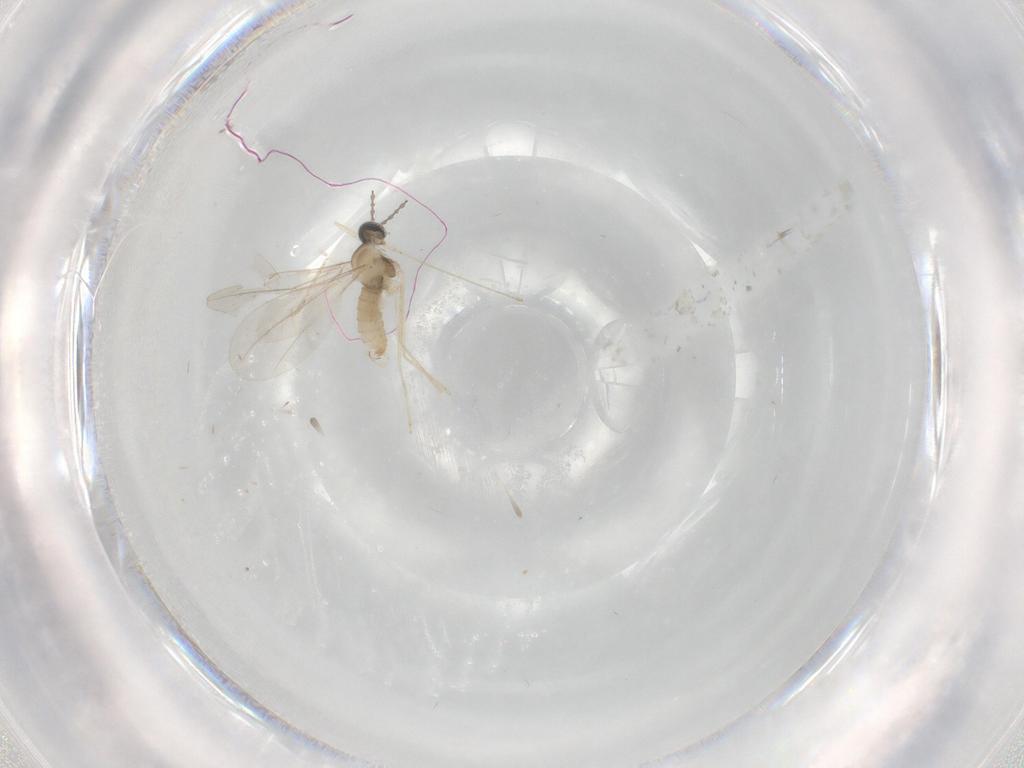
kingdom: Animalia
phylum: Arthropoda
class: Insecta
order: Diptera
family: Cecidomyiidae
